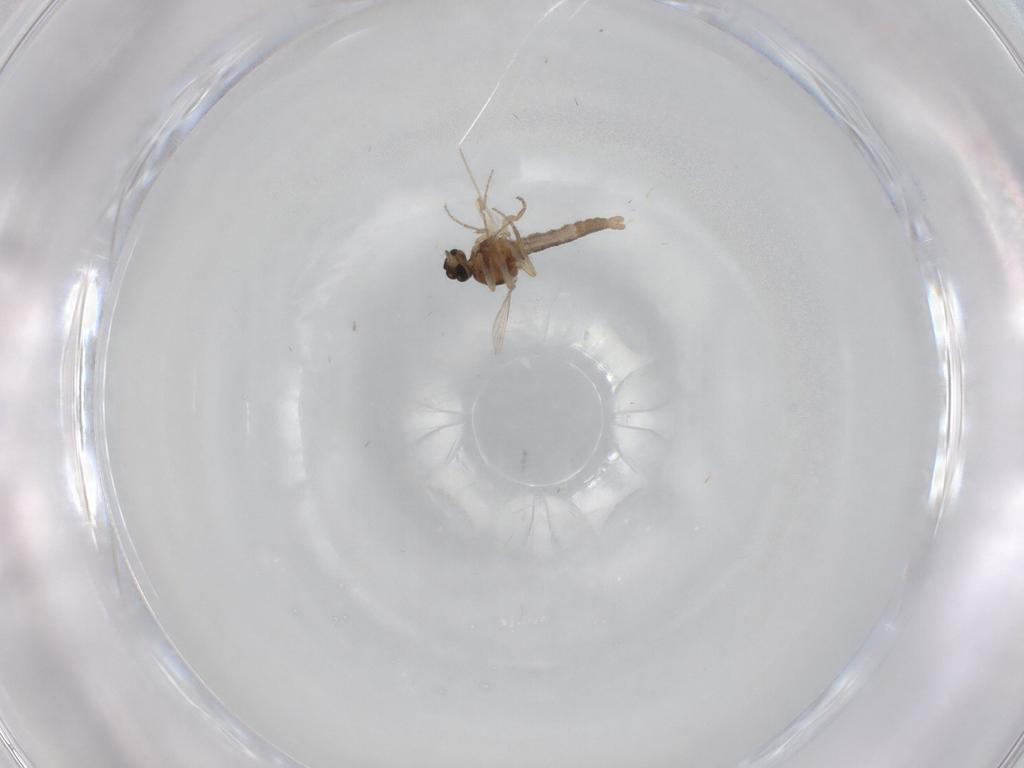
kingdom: Animalia
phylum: Arthropoda
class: Insecta
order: Diptera
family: Ceratopogonidae
